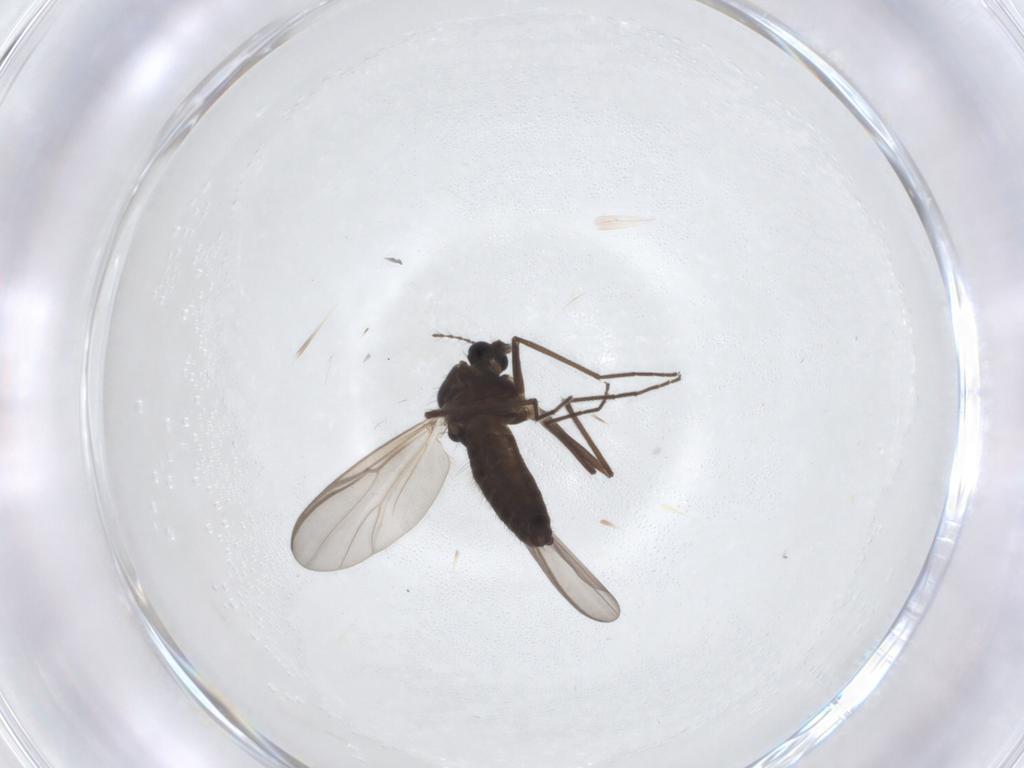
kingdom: Animalia
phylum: Arthropoda
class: Insecta
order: Diptera
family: Chironomidae
